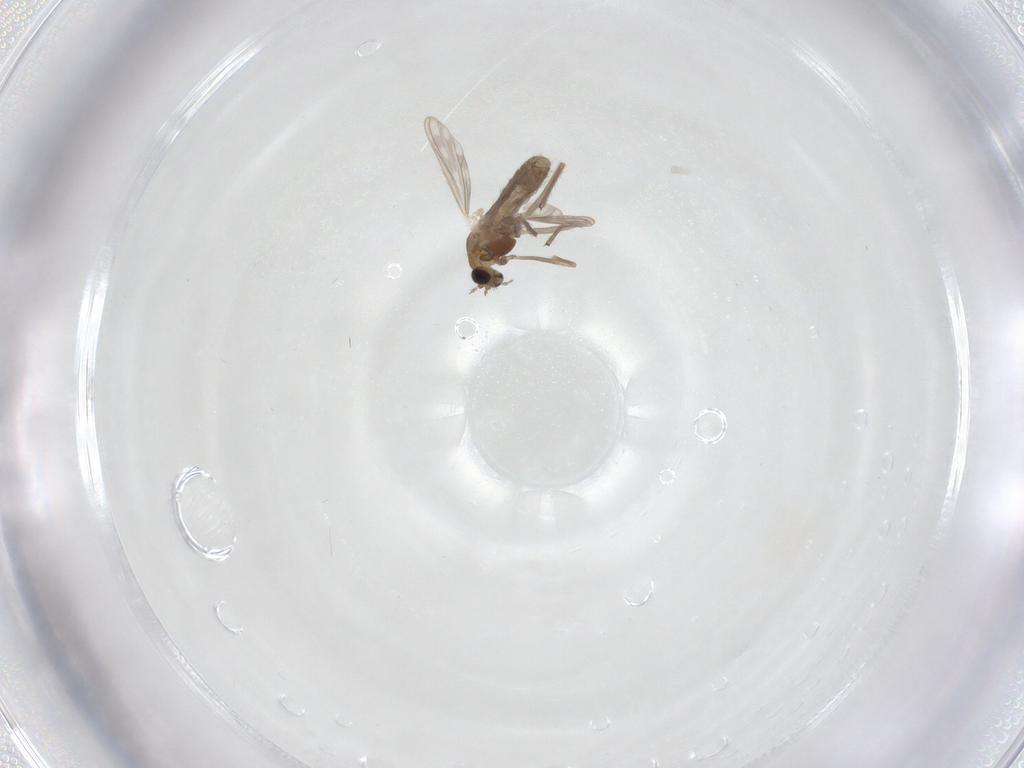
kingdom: Animalia
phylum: Arthropoda
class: Insecta
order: Diptera
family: Chironomidae
